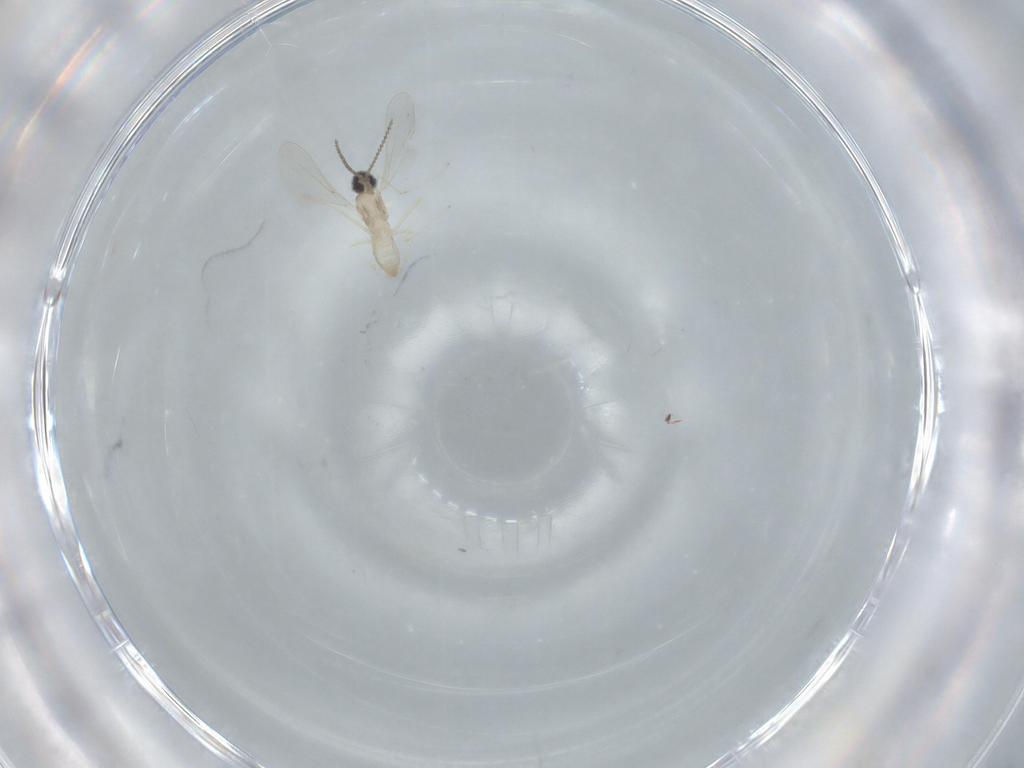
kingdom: Animalia
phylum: Arthropoda
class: Insecta
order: Diptera
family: Cecidomyiidae
